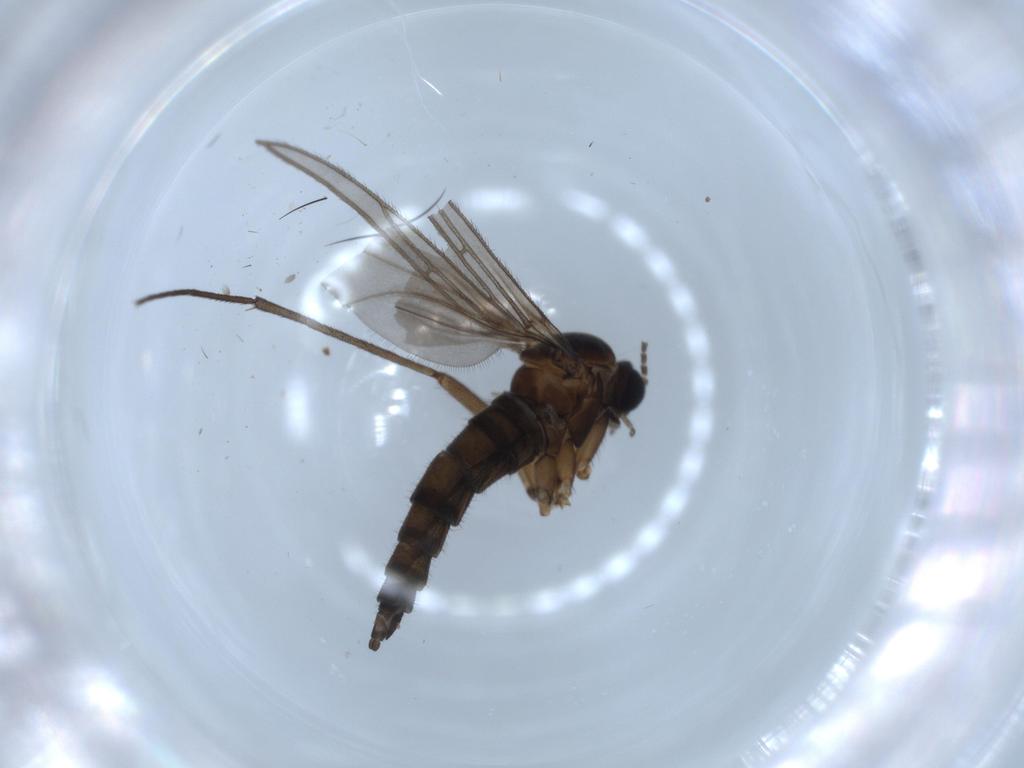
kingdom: Animalia
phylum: Arthropoda
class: Insecta
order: Diptera
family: Sciaridae
